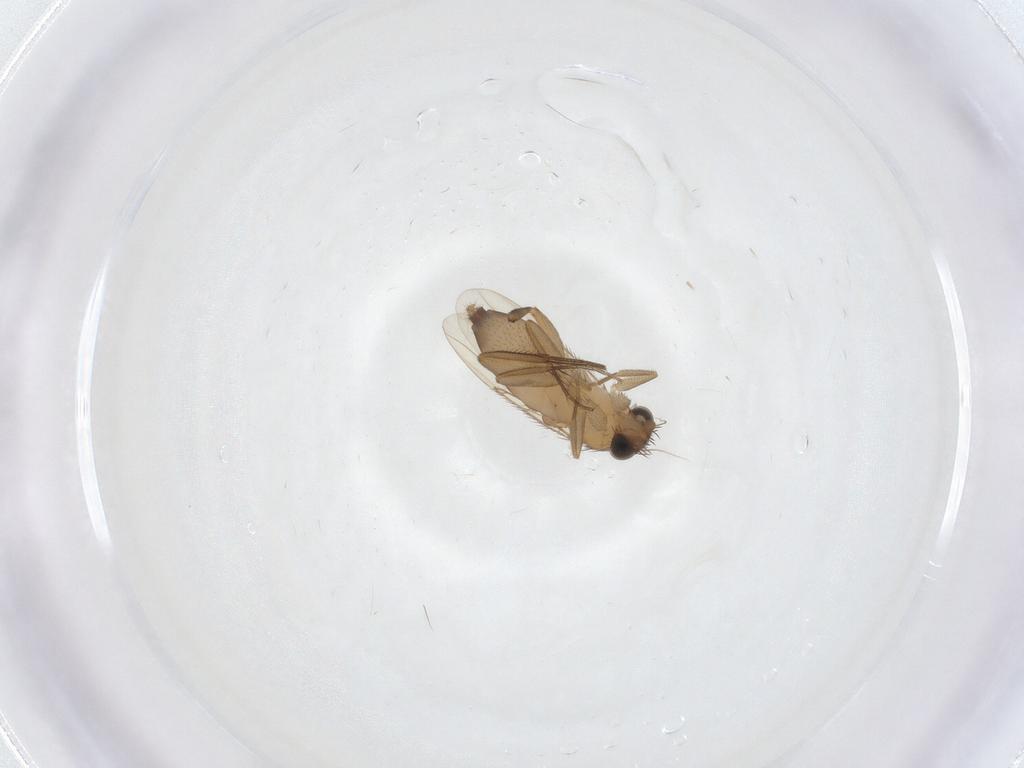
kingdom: Animalia
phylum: Arthropoda
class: Insecta
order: Diptera
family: Phoridae
